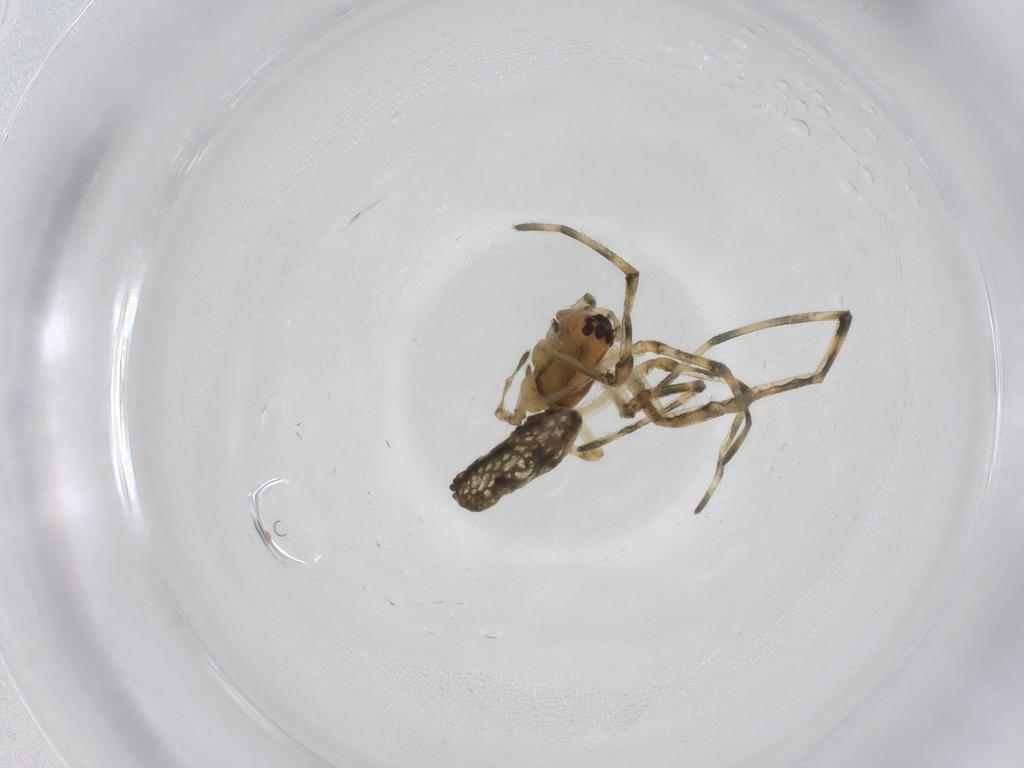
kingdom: Animalia
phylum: Arthropoda
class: Arachnida
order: Araneae
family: Tetragnathidae
